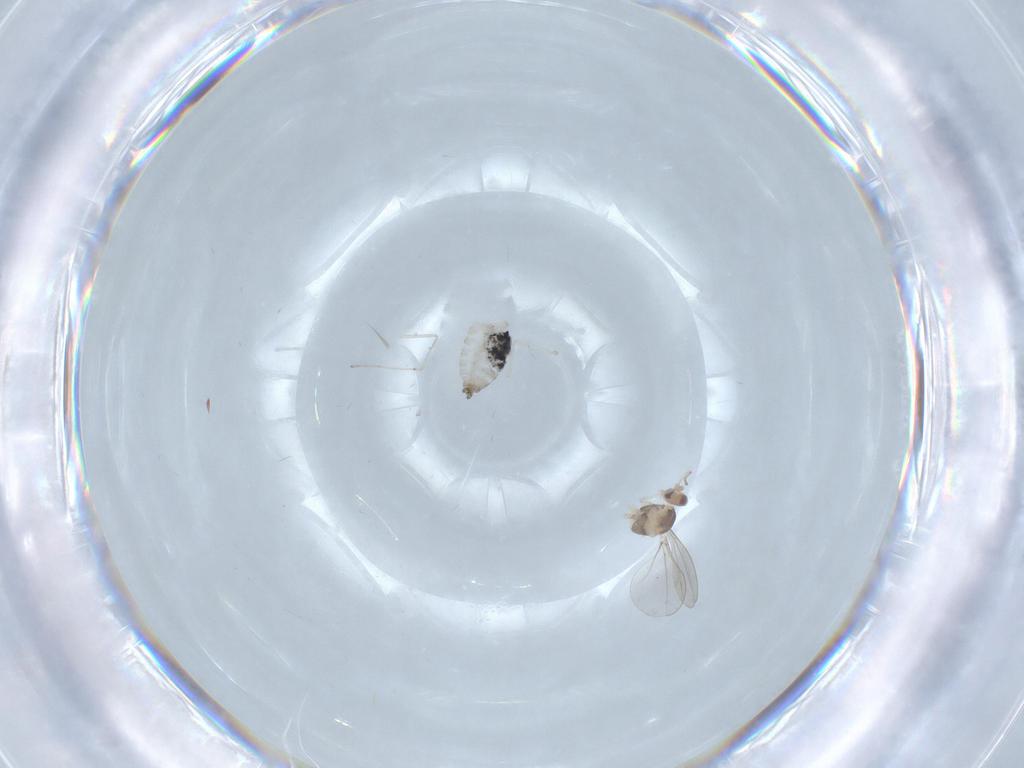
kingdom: Animalia
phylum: Arthropoda
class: Insecta
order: Diptera
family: Cecidomyiidae
